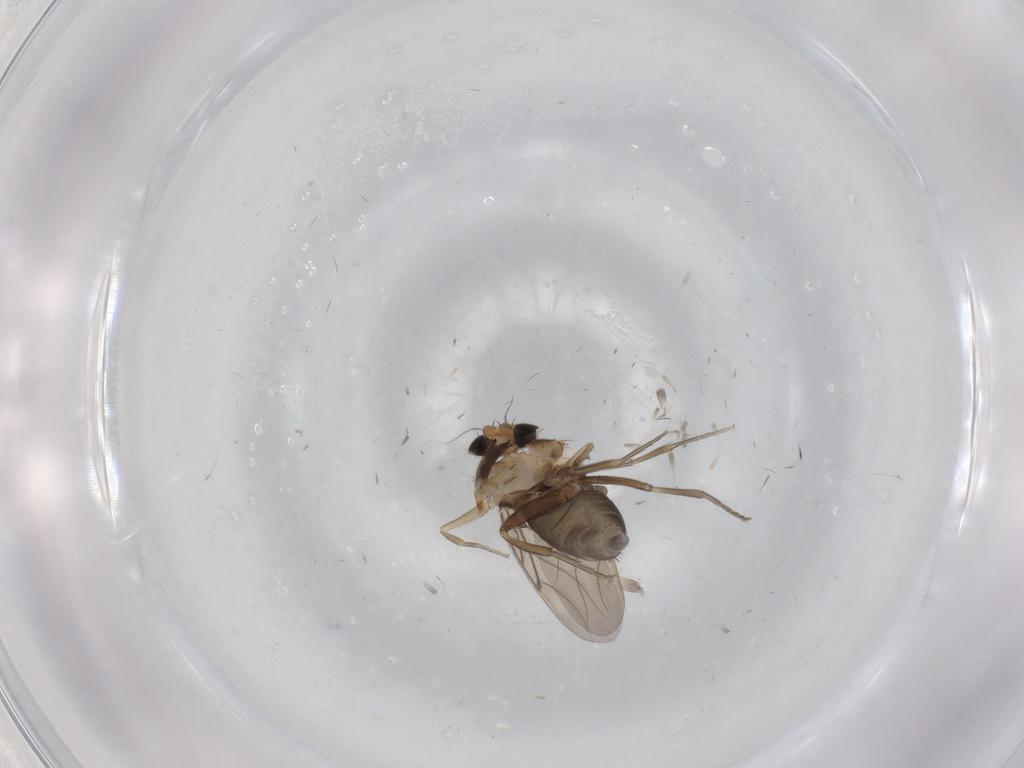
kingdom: Animalia
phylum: Arthropoda
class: Insecta
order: Diptera
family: Phoridae
